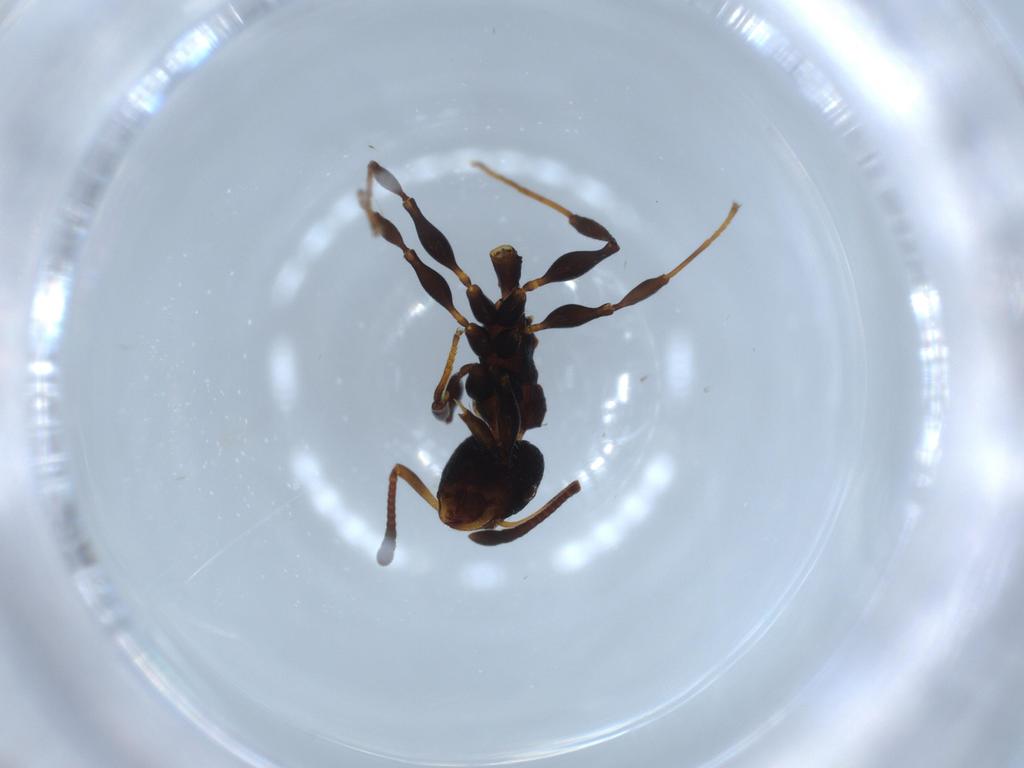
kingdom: Animalia
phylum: Arthropoda
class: Insecta
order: Hymenoptera
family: Formicidae
